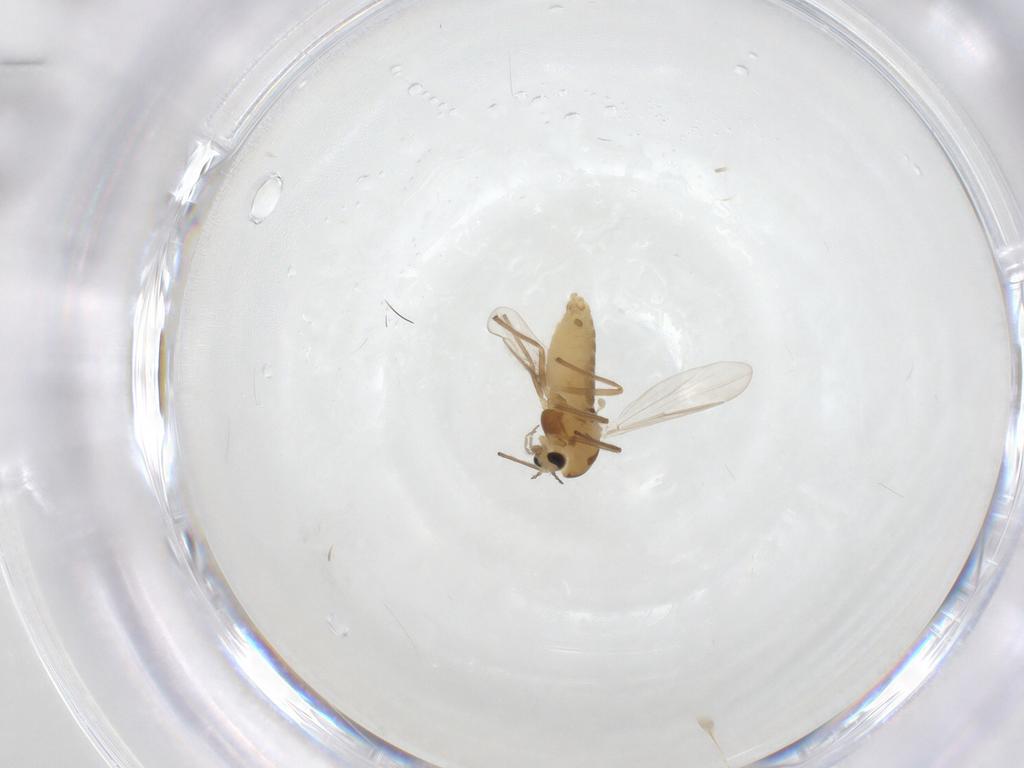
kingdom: Animalia
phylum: Arthropoda
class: Insecta
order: Diptera
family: Chironomidae
